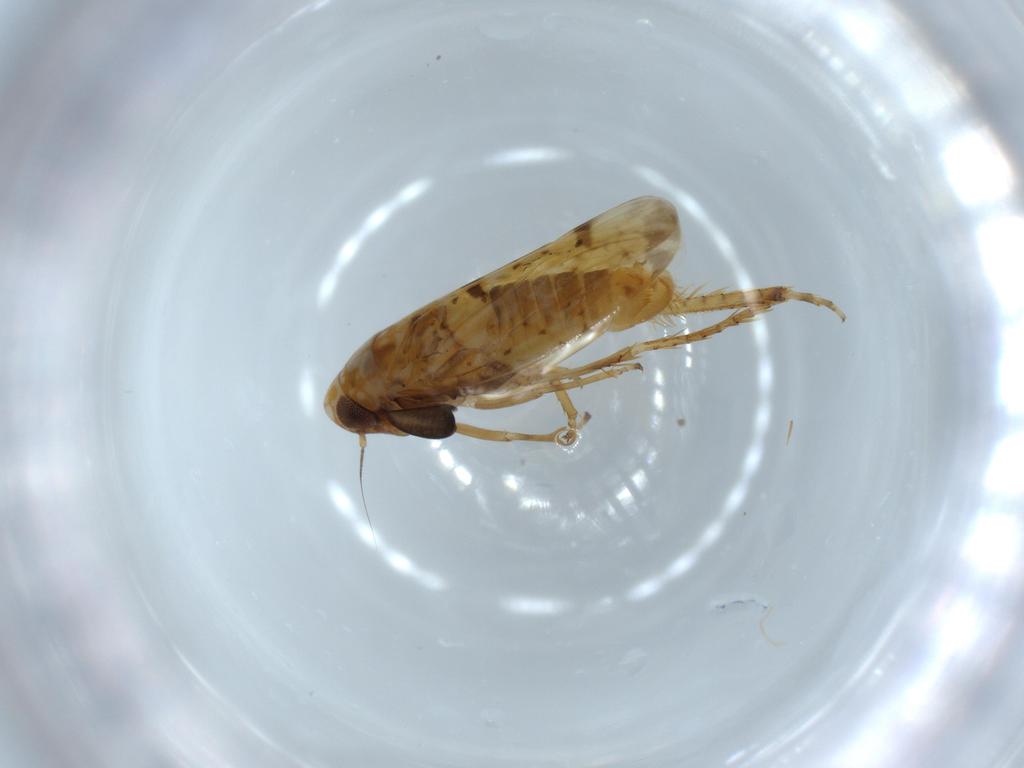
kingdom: Animalia
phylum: Arthropoda
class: Insecta
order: Hemiptera
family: Cicadellidae
